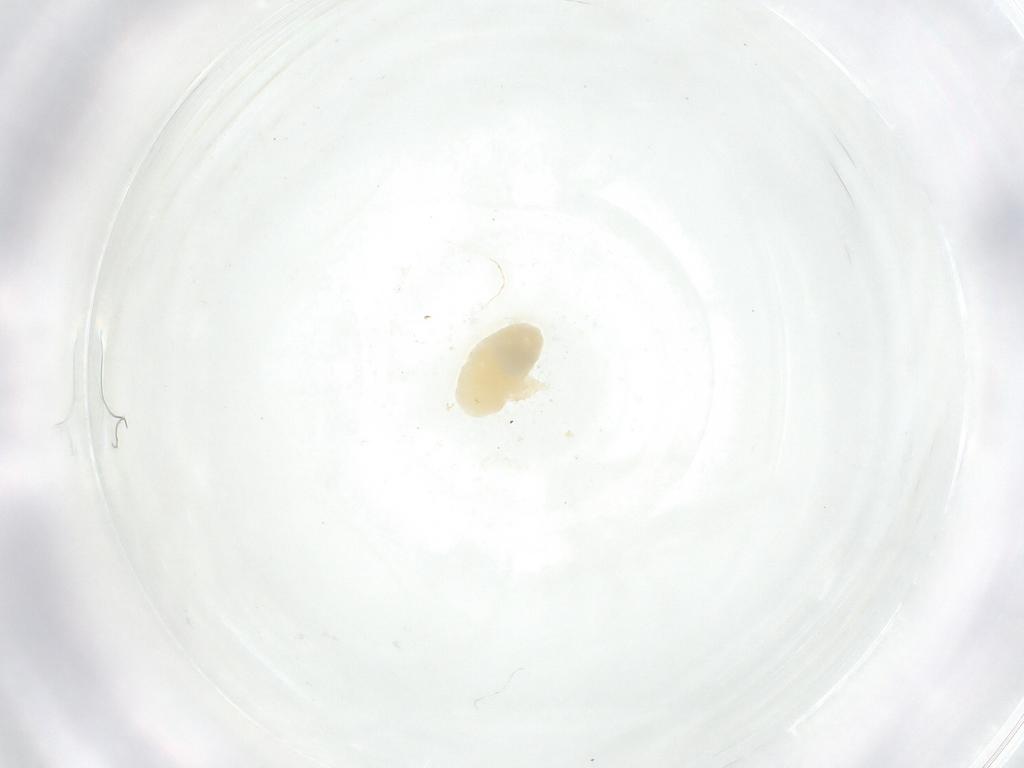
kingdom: Animalia
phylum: Arthropoda
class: Insecta
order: Diptera
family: Fergusoninidae
